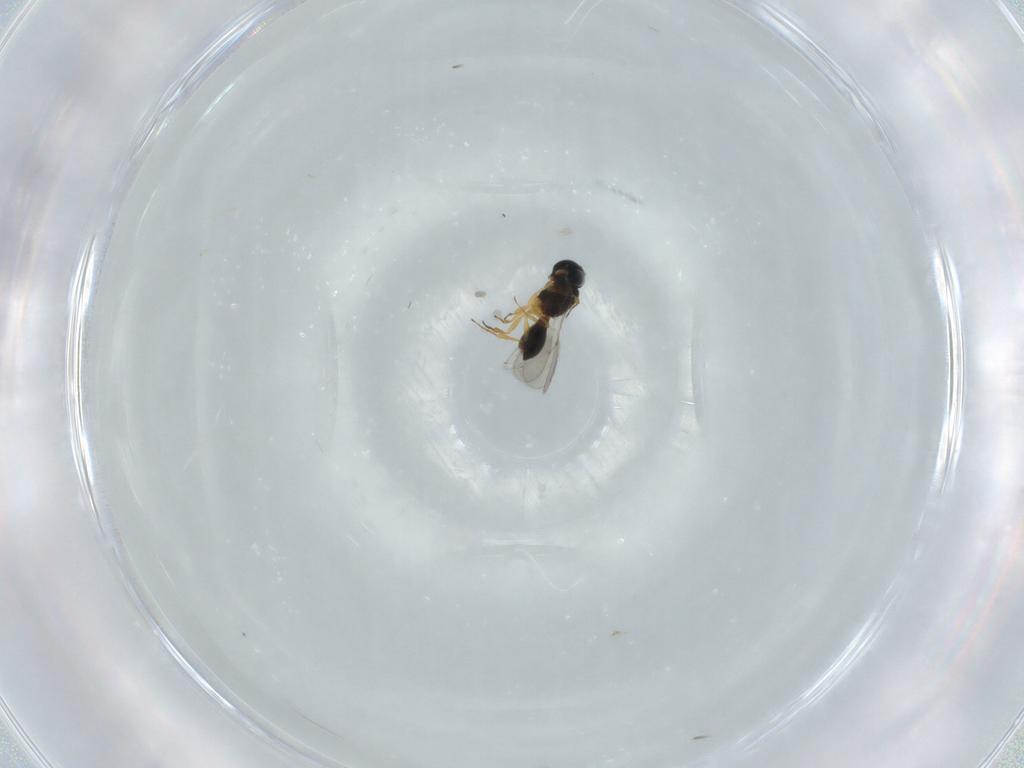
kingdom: Animalia
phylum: Arthropoda
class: Insecta
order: Hymenoptera
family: Scelionidae
